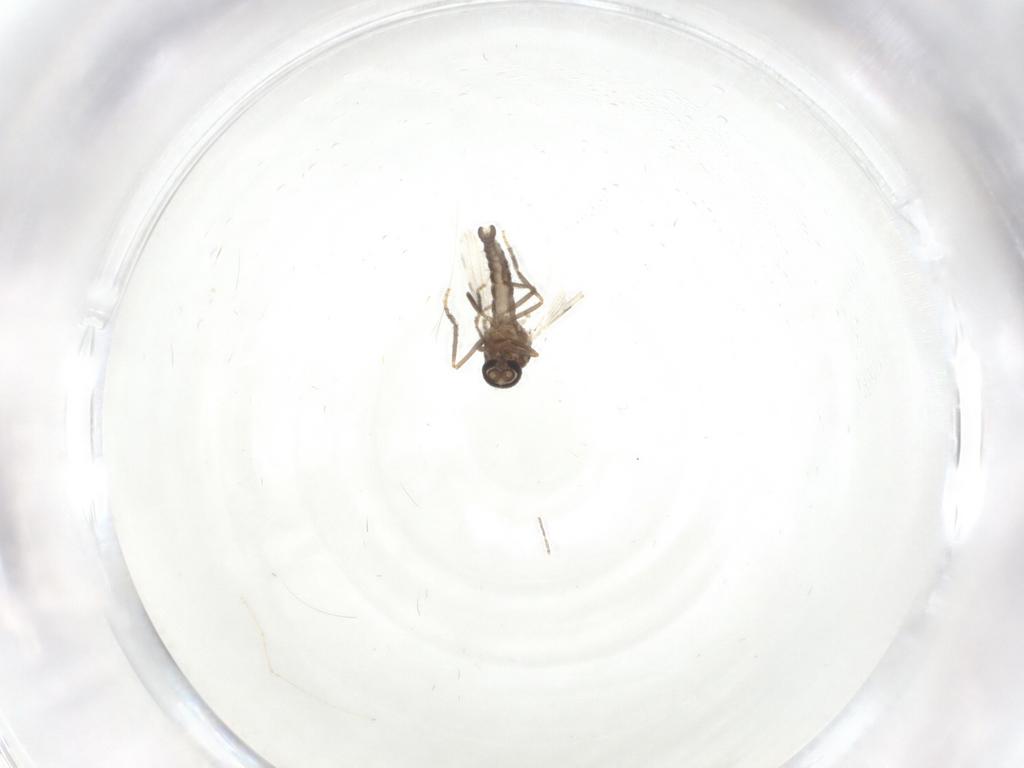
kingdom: Animalia
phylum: Arthropoda
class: Insecta
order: Diptera
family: Ceratopogonidae
